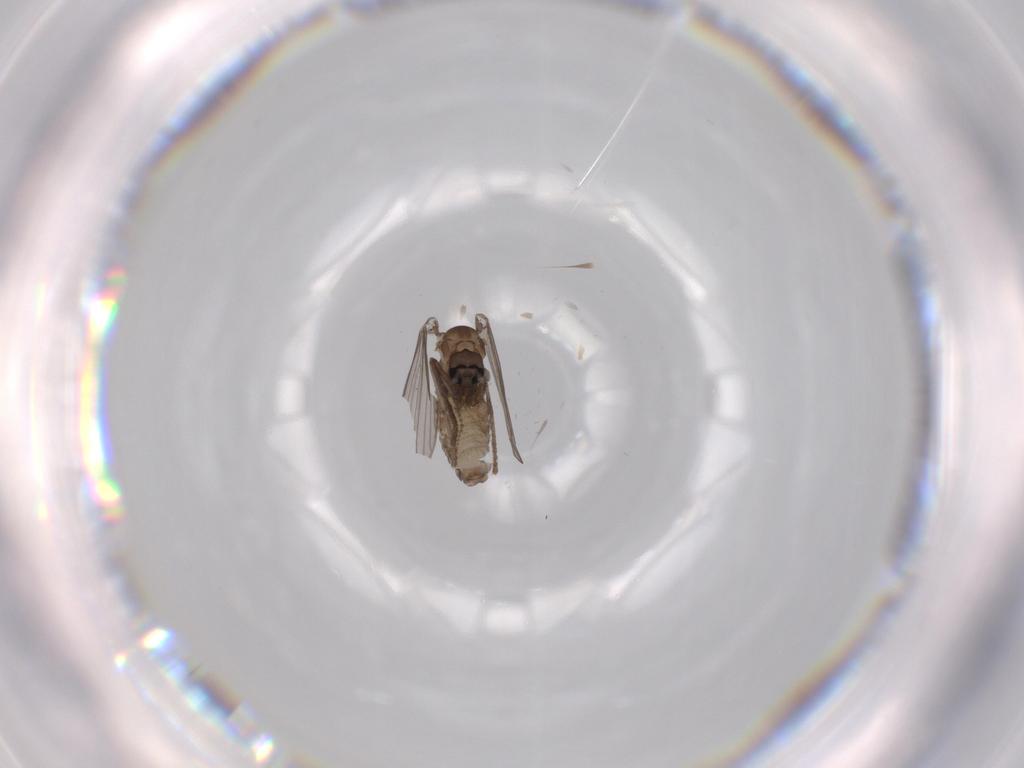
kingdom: Animalia
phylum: Arthropoda
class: Insecta
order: Diptera
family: Psychodidae
